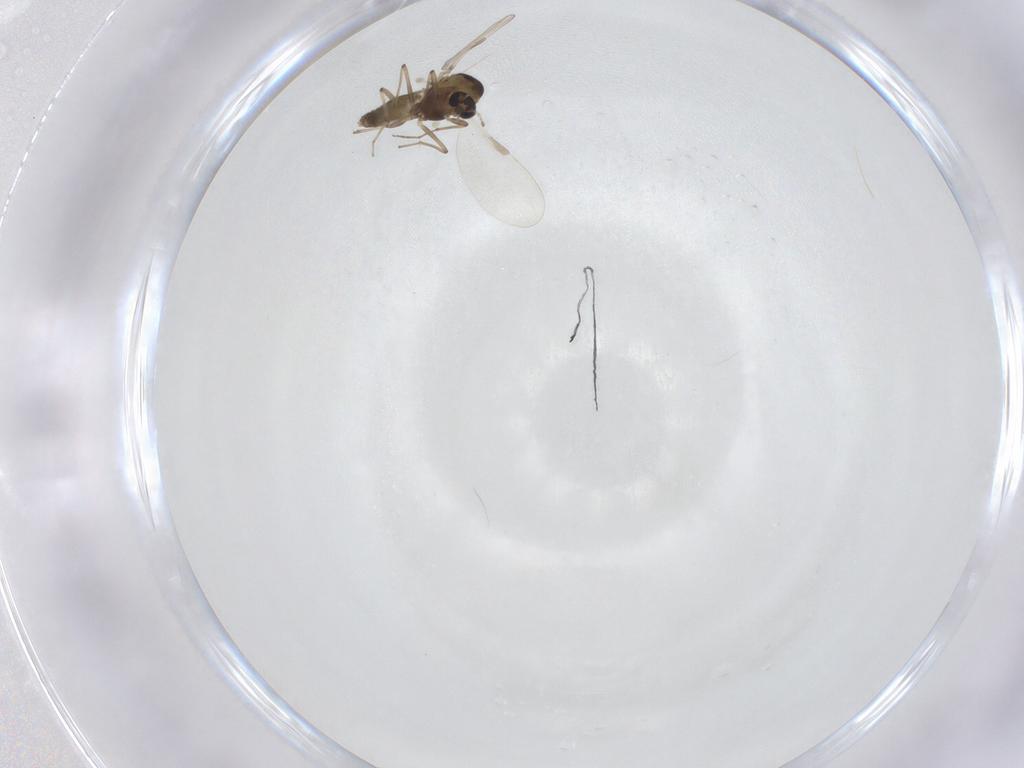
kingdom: Animalia
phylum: Arthropoda
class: Insecta
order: Diptera
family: Chironomidae
